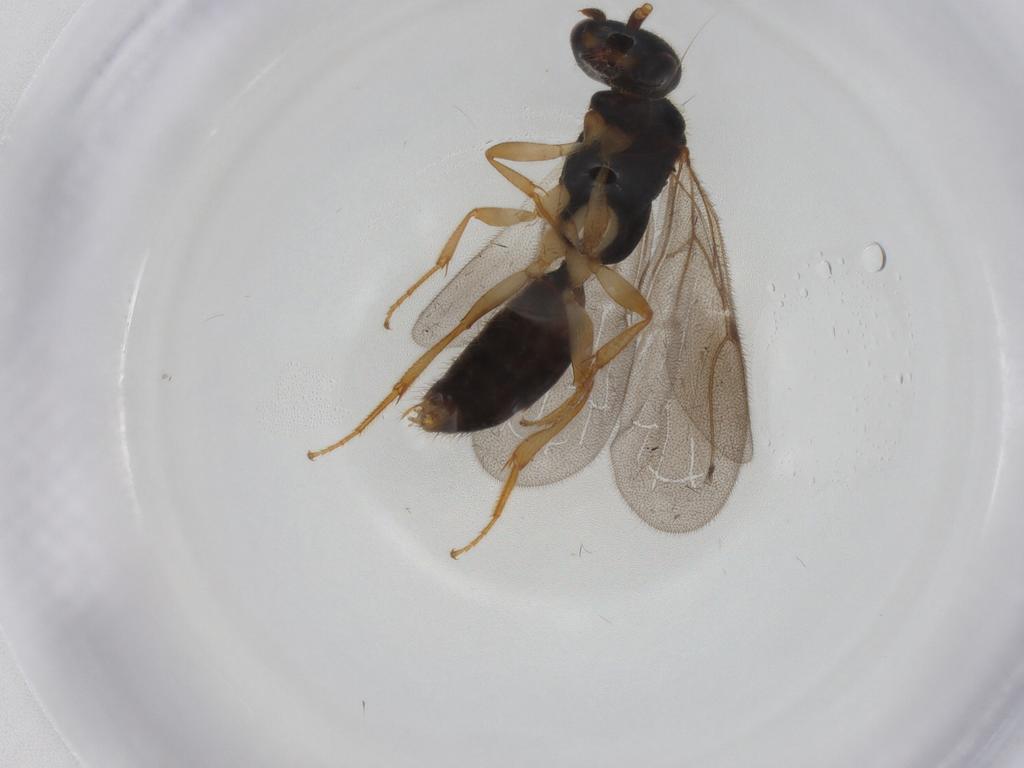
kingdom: Animalia
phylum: Arthropoda
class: Insecta
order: Hymenoptera
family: Bethylidae
